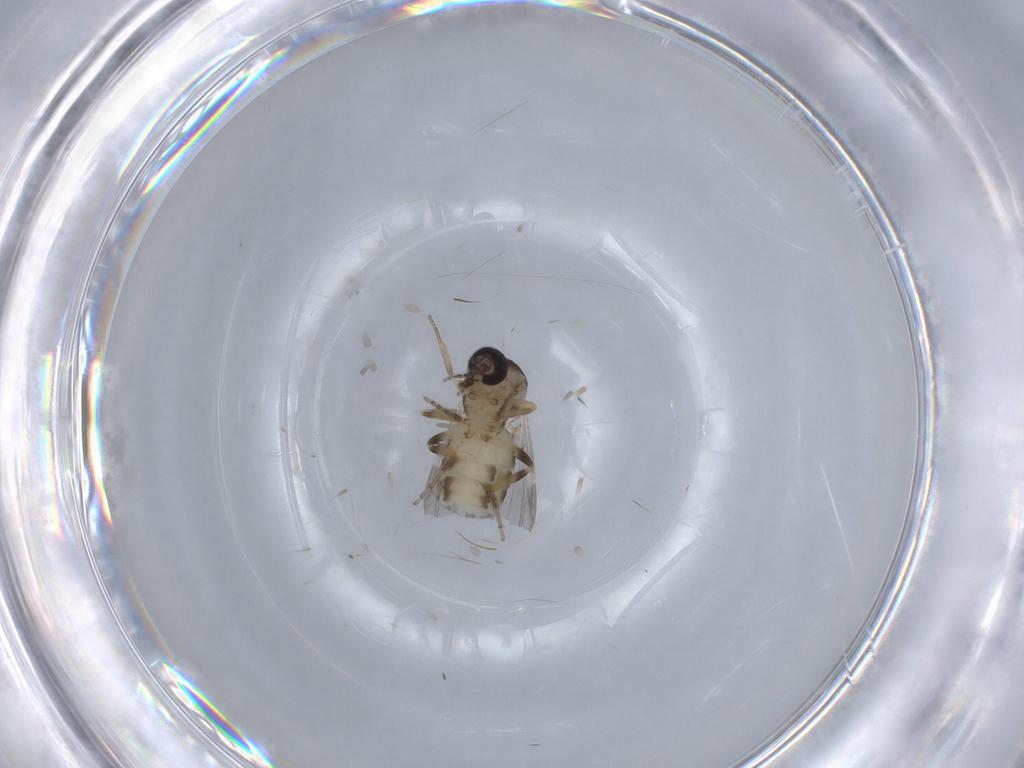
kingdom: Animalia
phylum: Arthropoda
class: Insecta
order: Diptera
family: Ceratopogonidae
